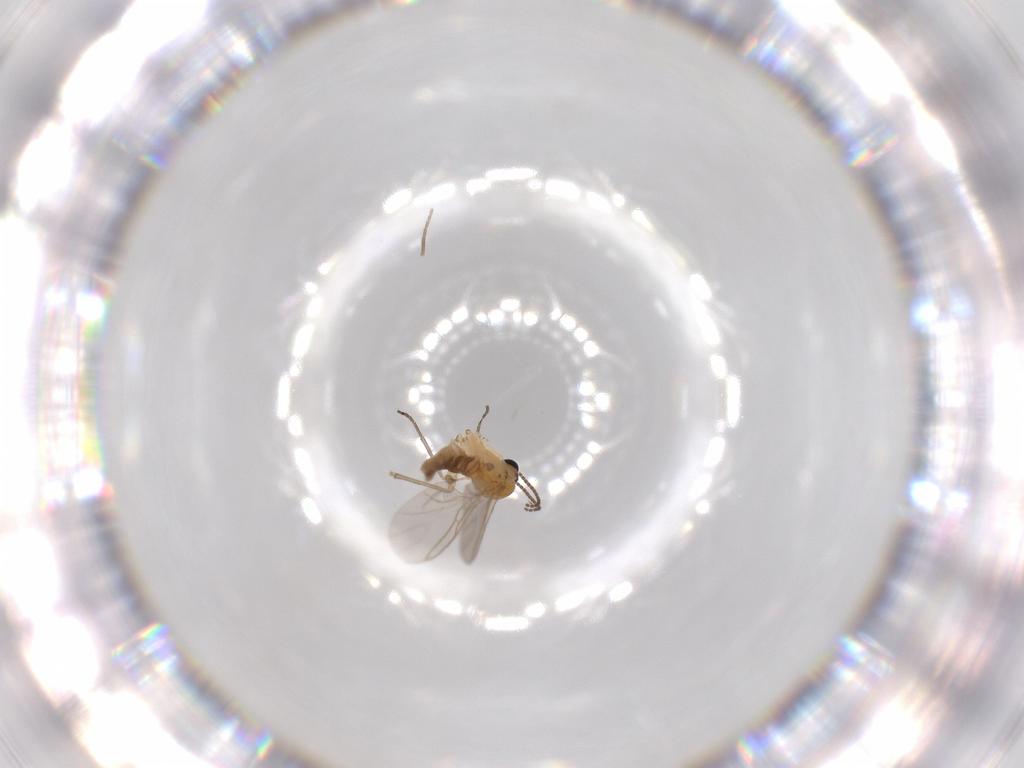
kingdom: Animalia
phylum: Arthropoda
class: Insecta
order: Diptera
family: Sciaridae
